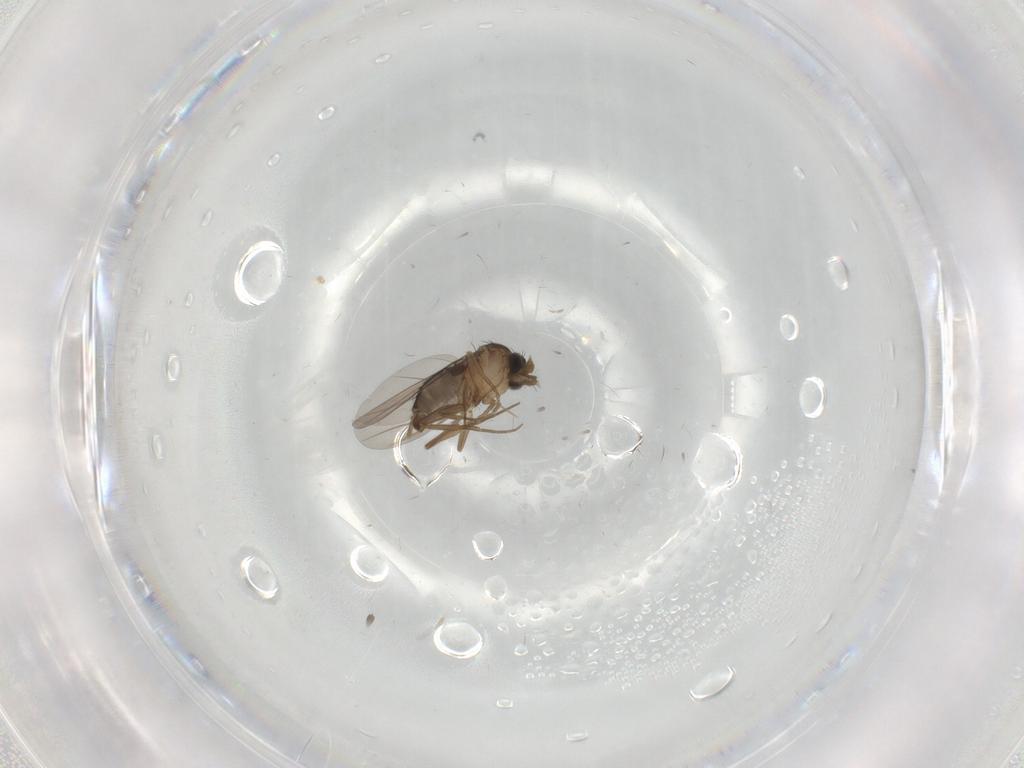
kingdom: Animalia
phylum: Arthropoda
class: Insecta
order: Diptera
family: Phoridae
